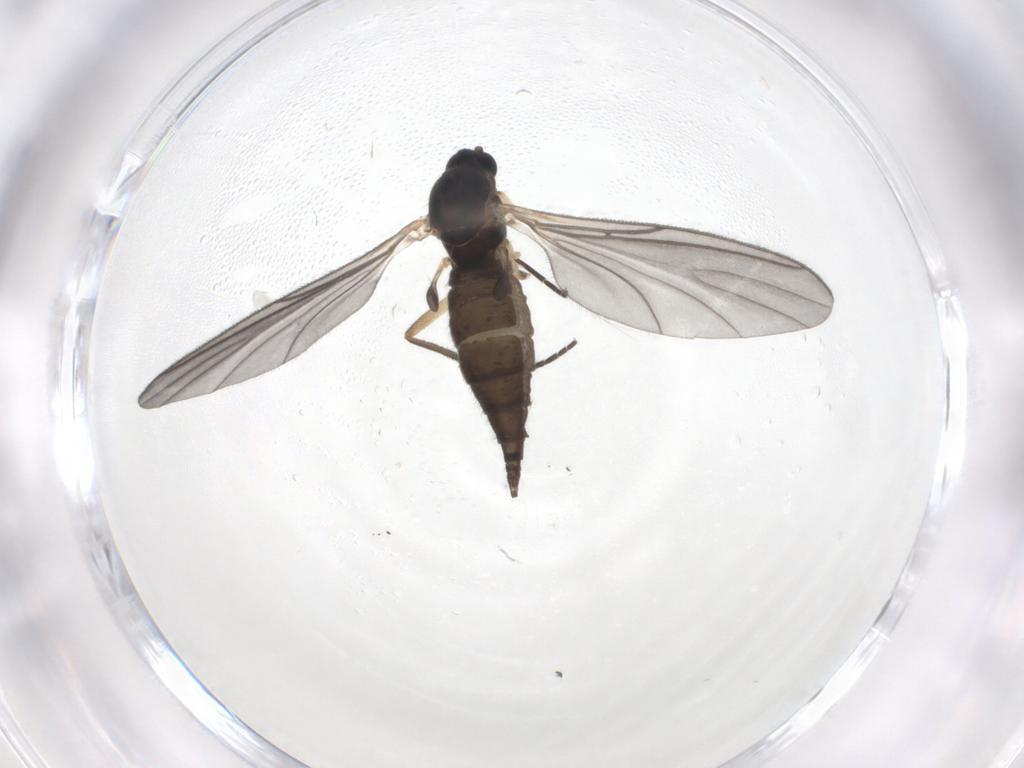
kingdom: Animalia
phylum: Arthropoda
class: Insecta
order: Diptera
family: Sciaridae
